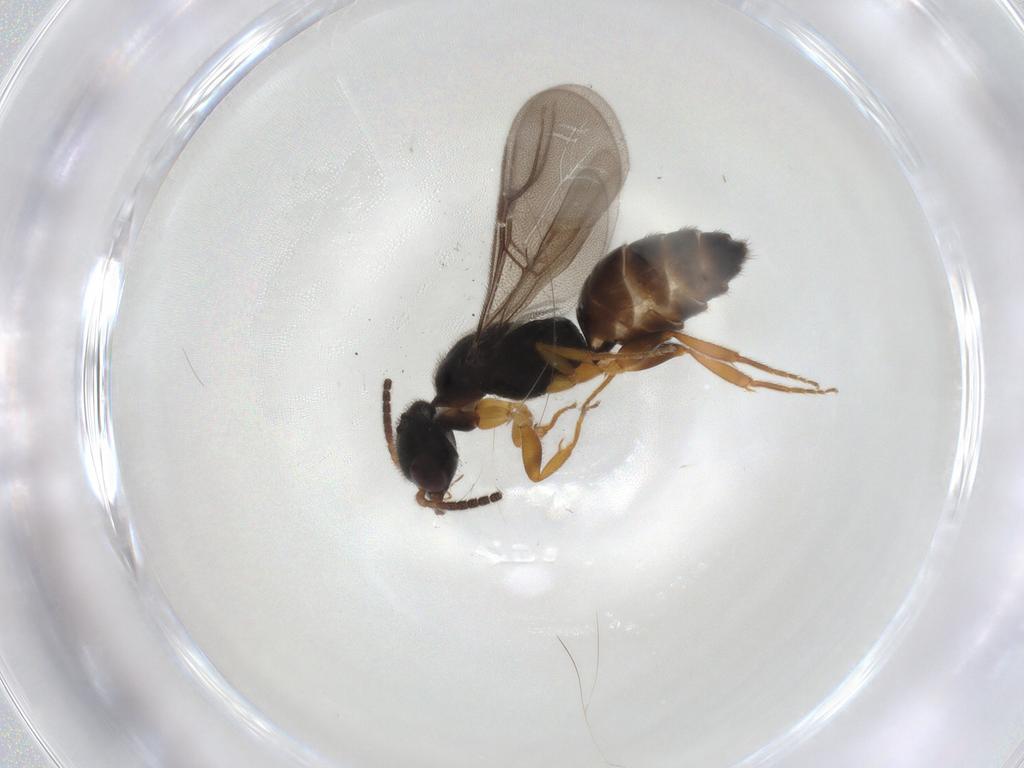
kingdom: Animalia
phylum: Arthropoda
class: Insecta
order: Hymenoptera
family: Bethylidae
